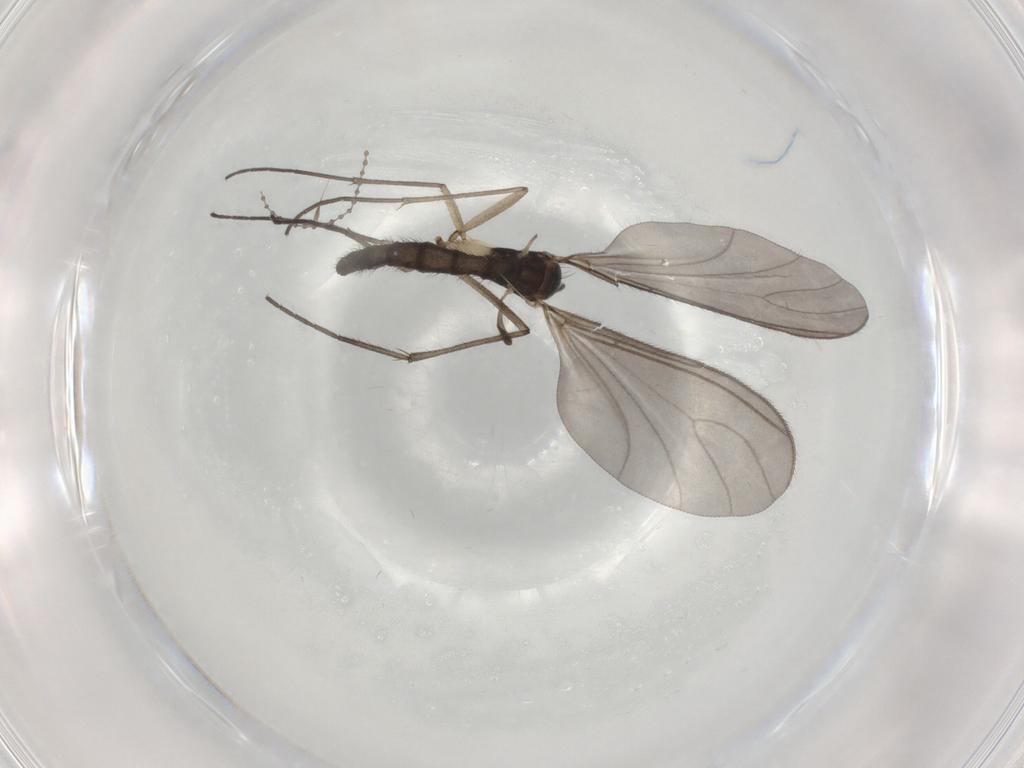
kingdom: Animalia
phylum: Arthropoda
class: Insecta
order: Diptera
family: Sciaridae
